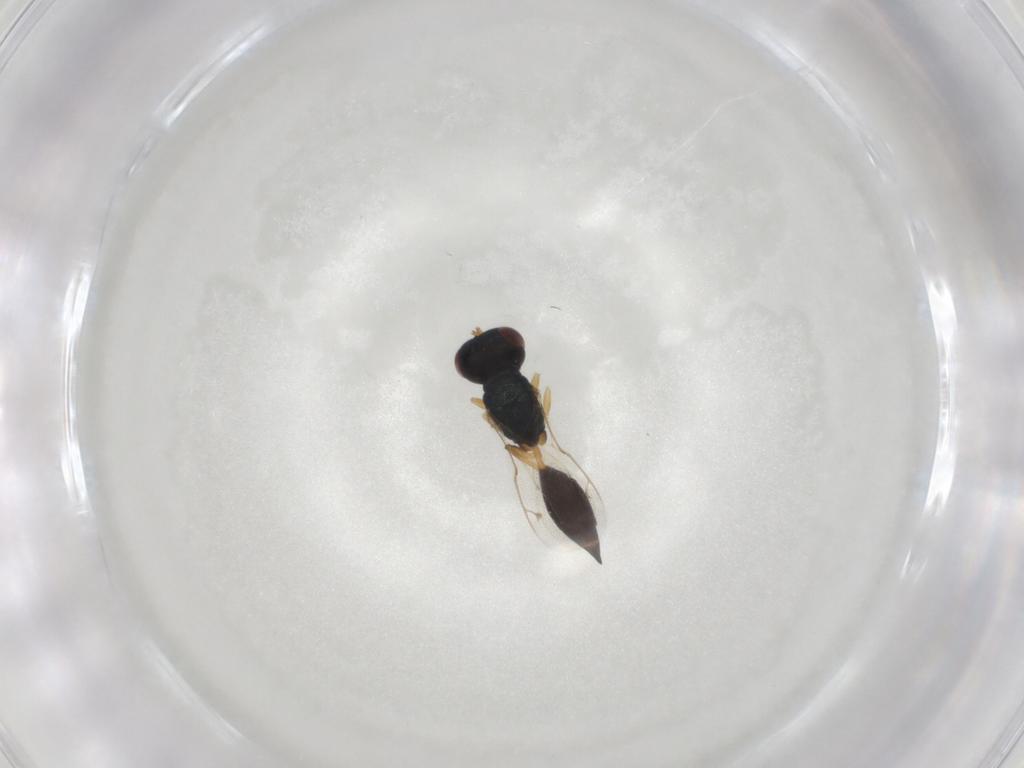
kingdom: Animalia
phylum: Arthropoda
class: Insecta
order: Hymenoptera
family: Pteromalidae
